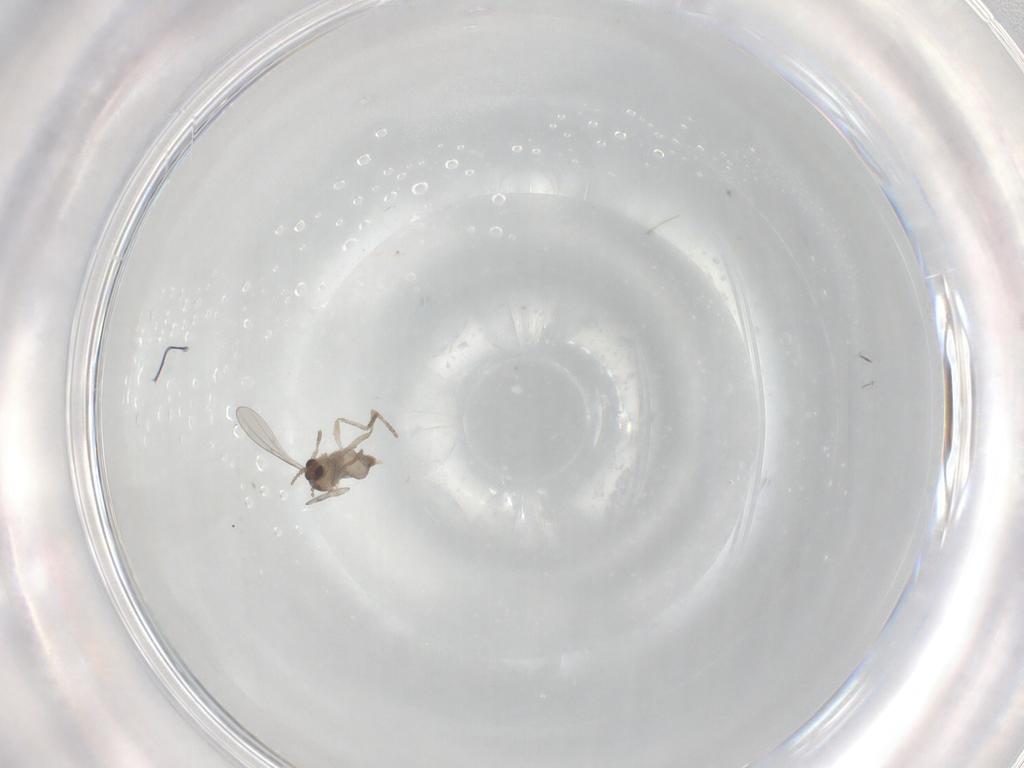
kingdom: Animalia
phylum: Arthropoda
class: Insecta
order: Diptera
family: Cecidomyiidae
